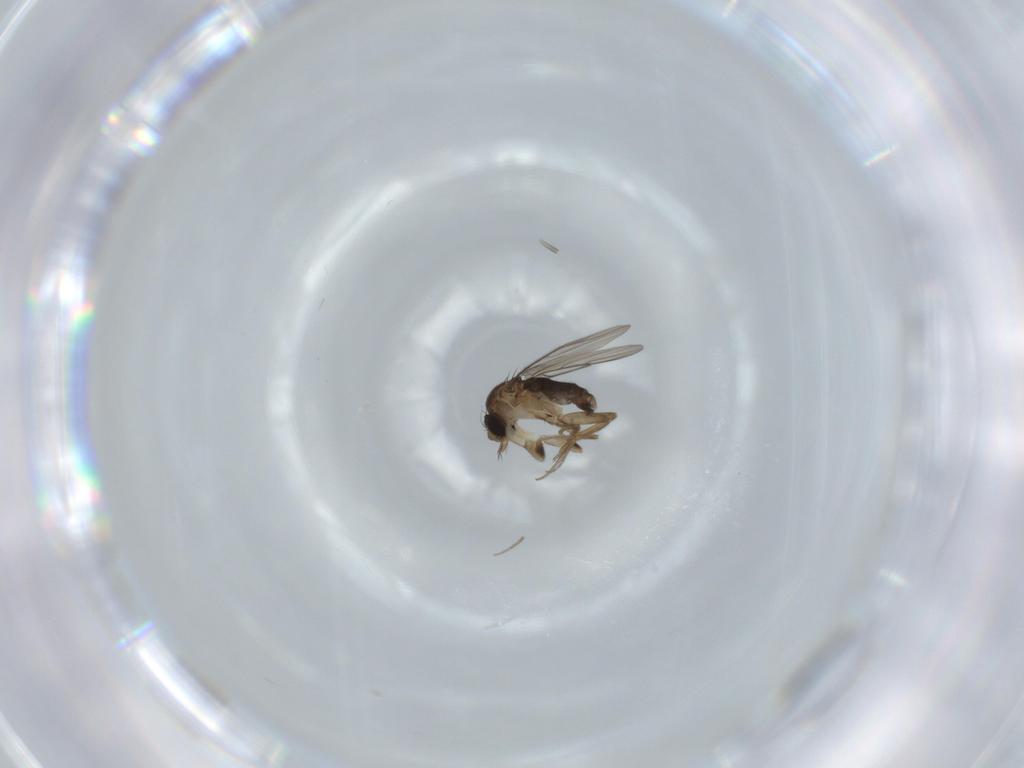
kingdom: Animalia
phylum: Arthropoda
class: Insecta
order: Diptera
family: Phoridae
